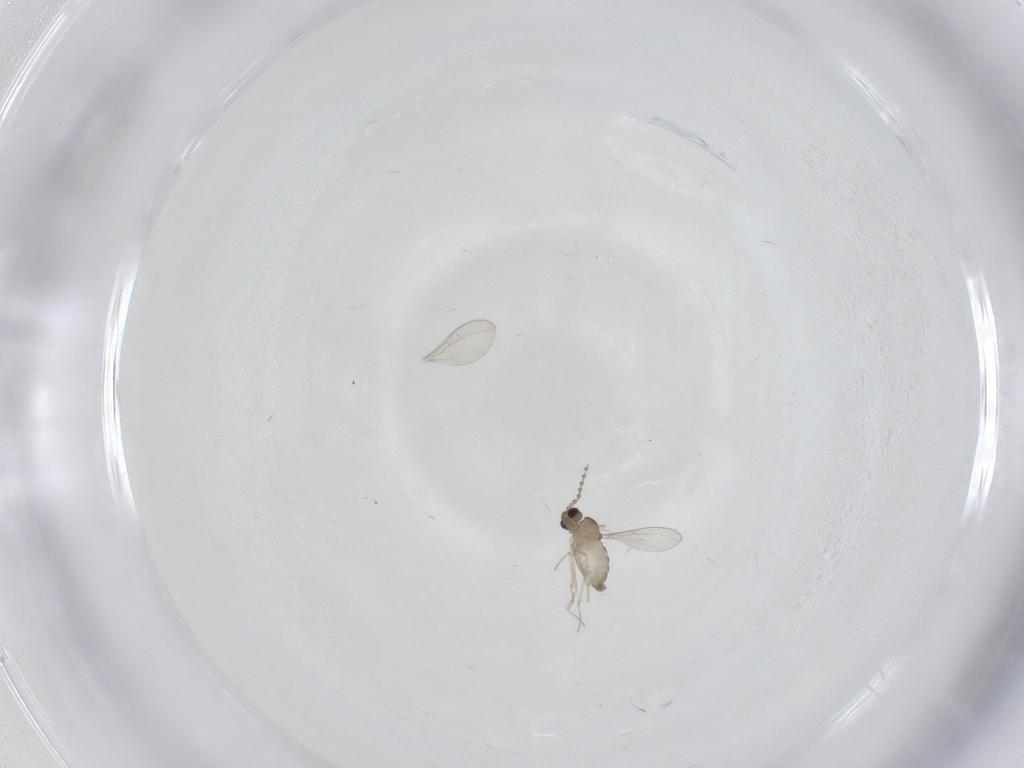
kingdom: Animalia
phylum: Arthropoda
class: Insecta
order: Diptera
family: Cecidomyiidae
